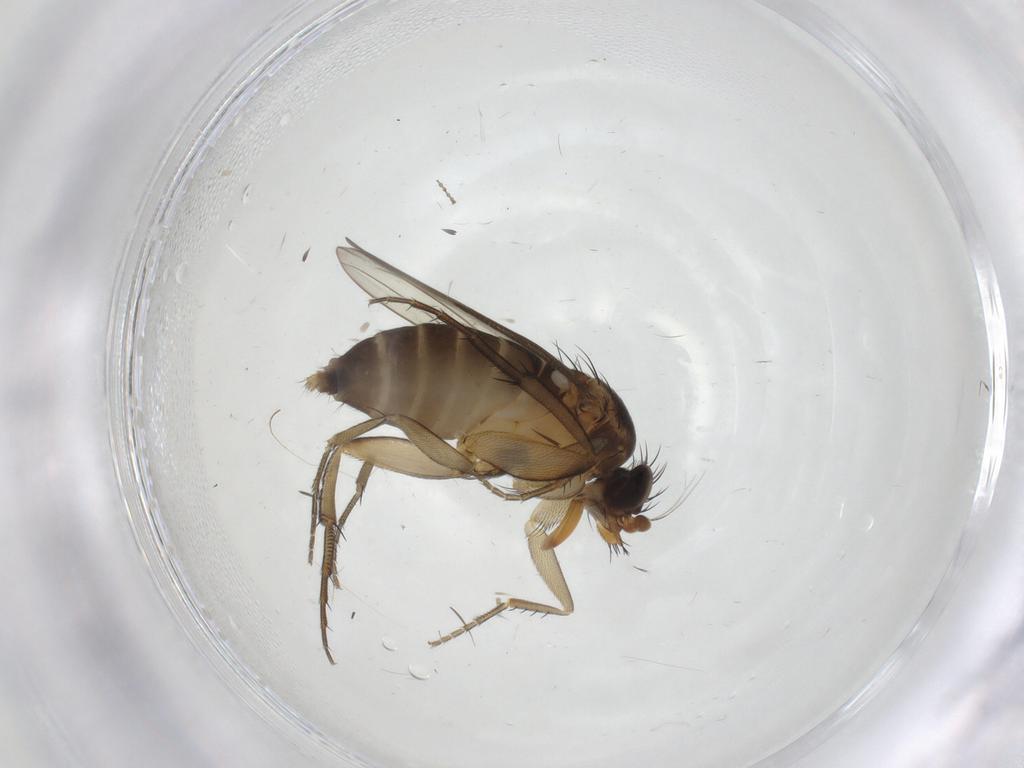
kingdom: Animalia
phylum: Arthropoda
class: Insecta
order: Diptera
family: Phoridae
